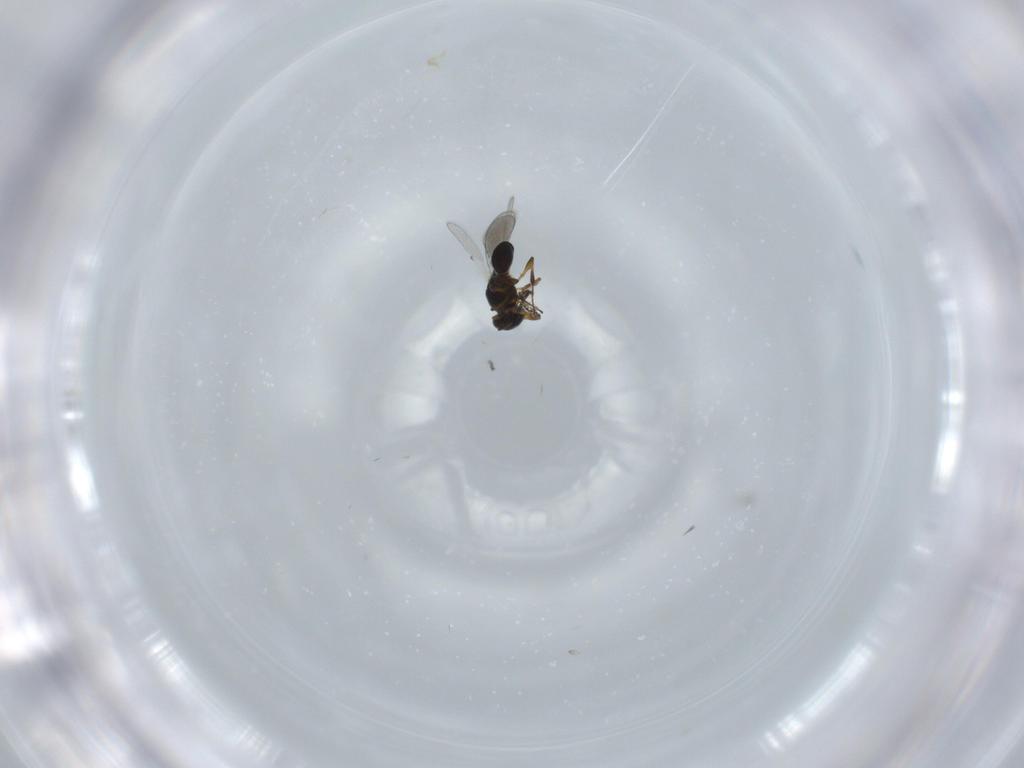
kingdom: Animalia
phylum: Arthropoda
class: Insecta
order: Hymenoptera
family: Platygastridae
